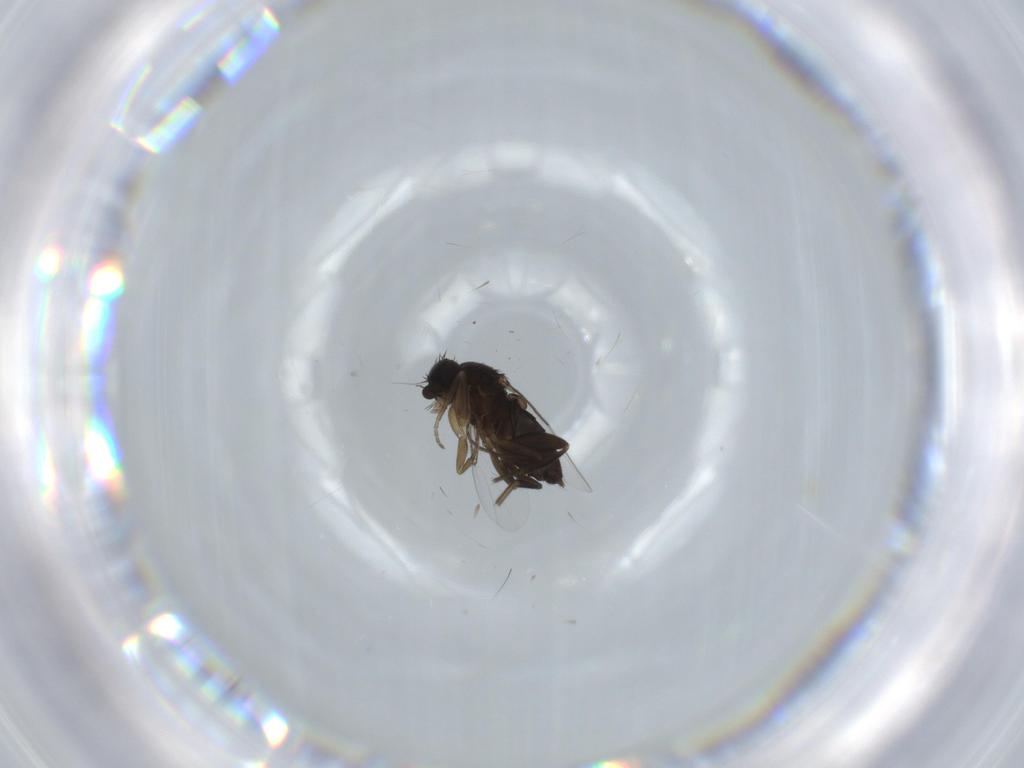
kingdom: Animalia
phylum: Arthropoda
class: Insecta
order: Diptera
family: Phoridae
